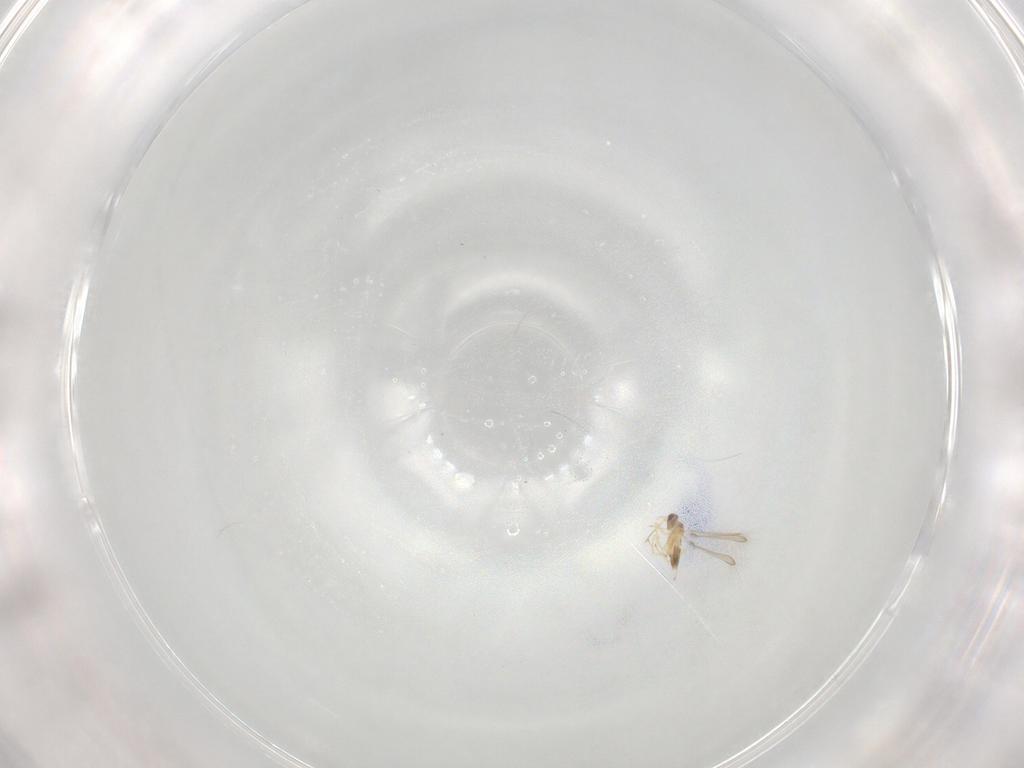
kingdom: Animalia
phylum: Arthropoda
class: Insecta
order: Hymenoptera
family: Mymaridae
